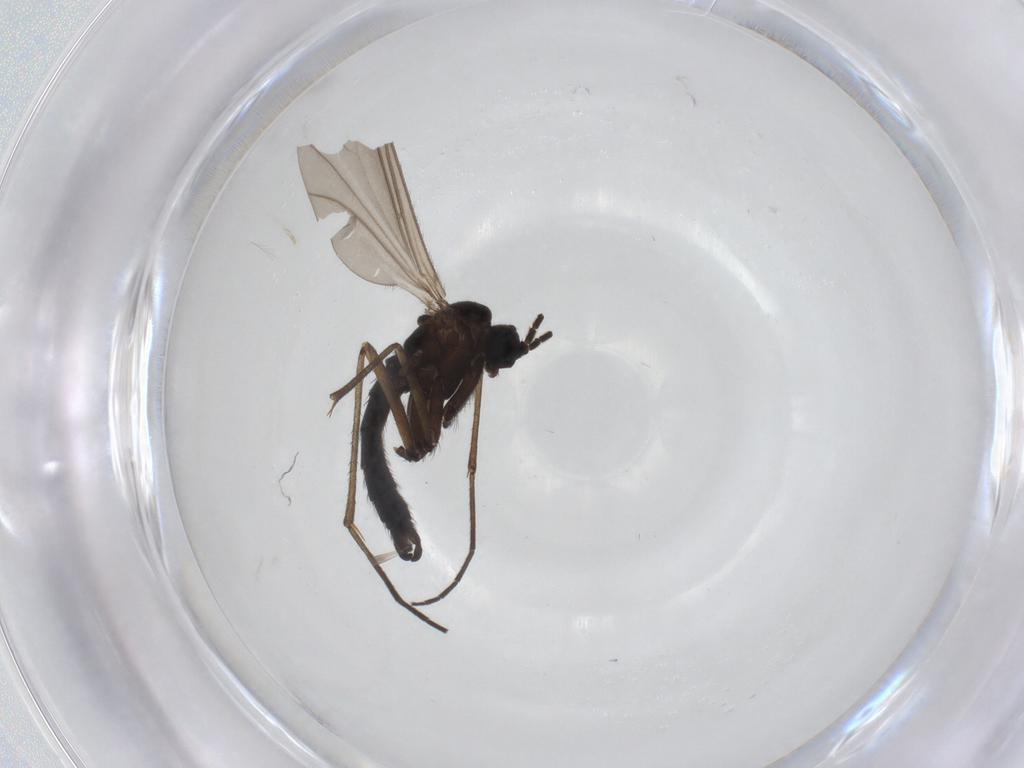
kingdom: Animalia
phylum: Arthropoda
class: Insecta
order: Diptera
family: Sciaridae
